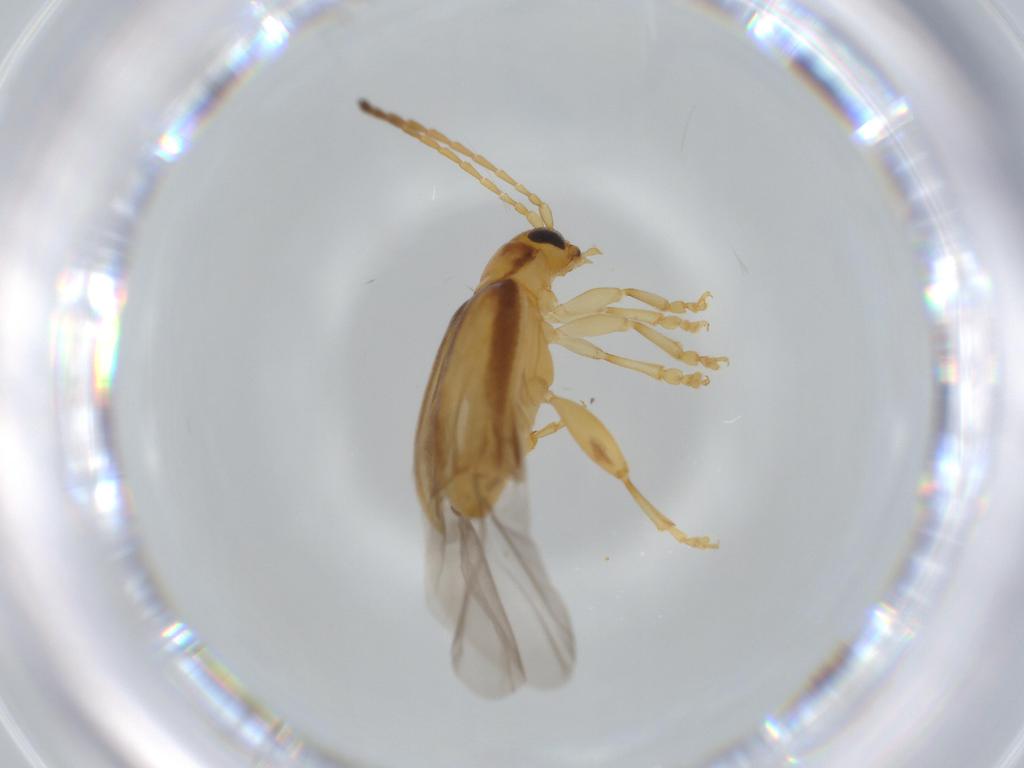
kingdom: Animalia
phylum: Arthropoda
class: Insecta
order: Coleoptera
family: Chrysomelidae
